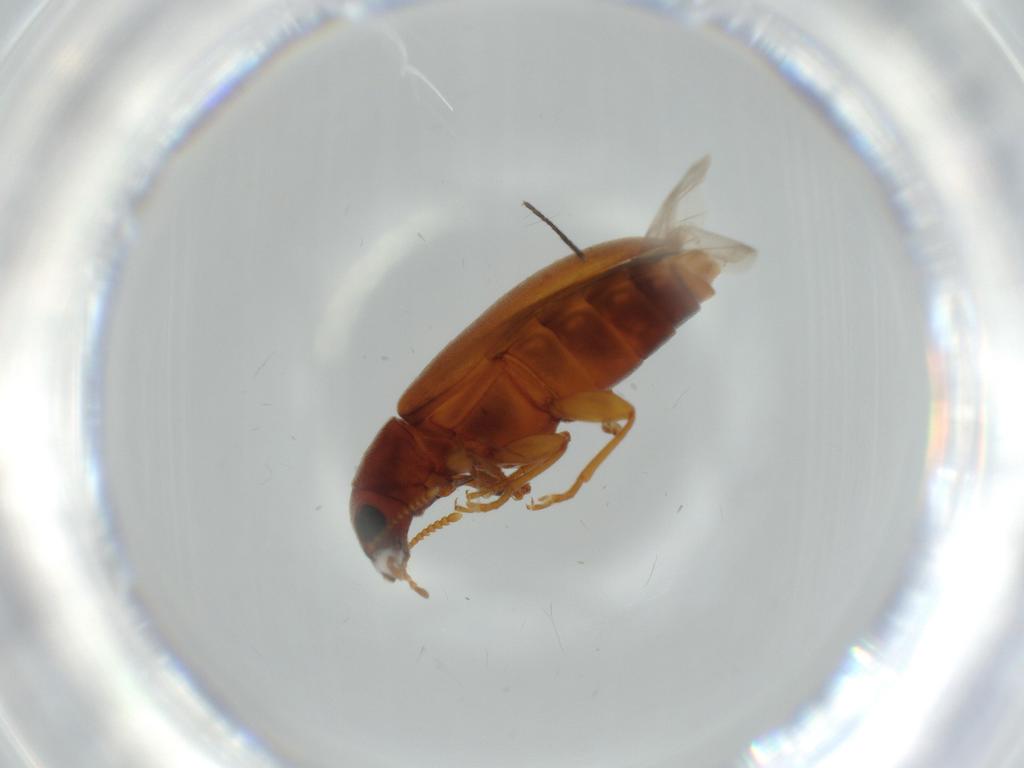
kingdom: Animalia
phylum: Arthropoda
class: Insecta
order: Coleoptera
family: Mycteridae
